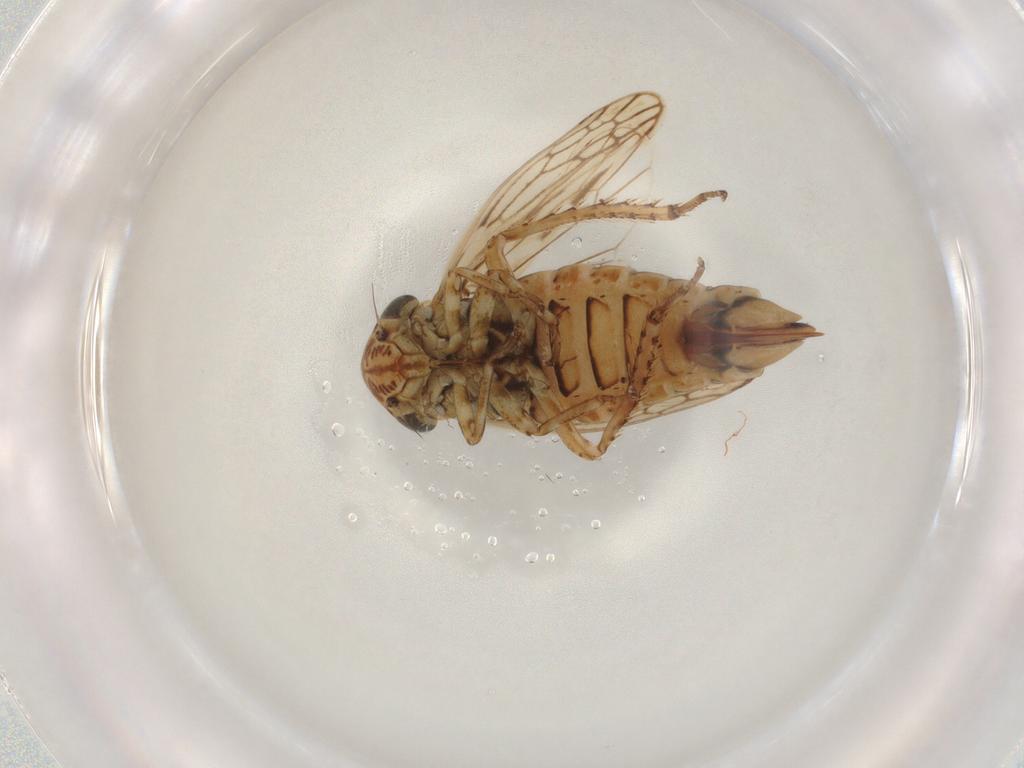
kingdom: Animalia
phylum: Arthropoda
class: Insecta
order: Hemiptera
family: Cicadellidae
